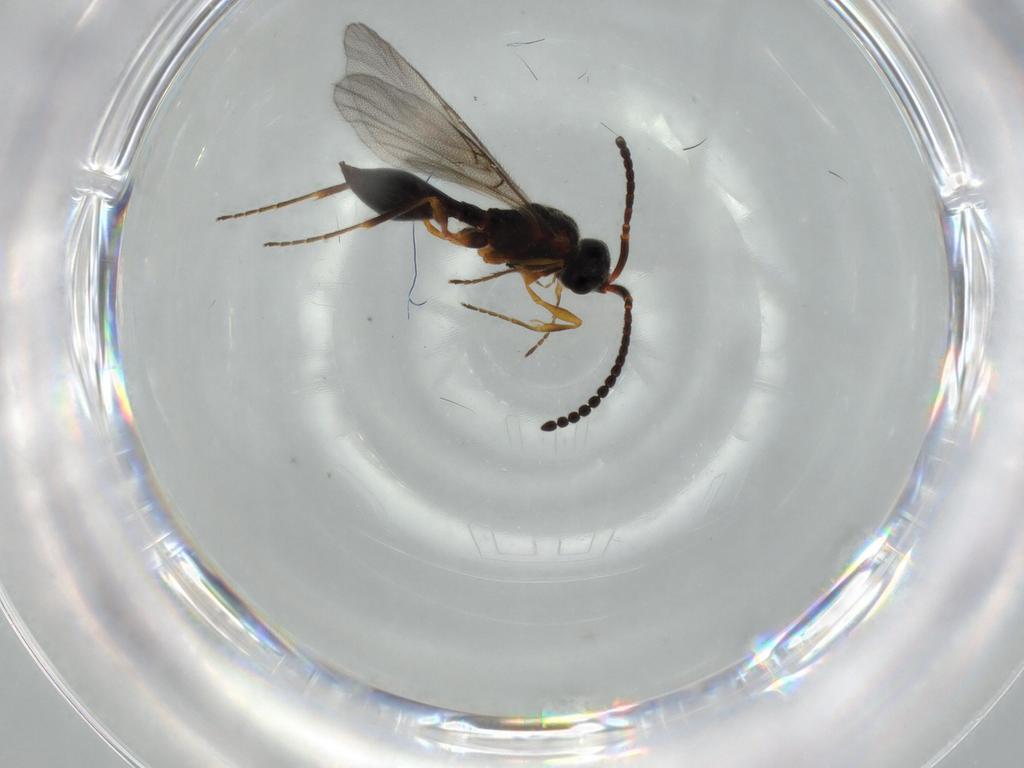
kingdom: Animalia
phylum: Arthropoda
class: Insecta
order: Hymenoptera
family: Diapriidae
